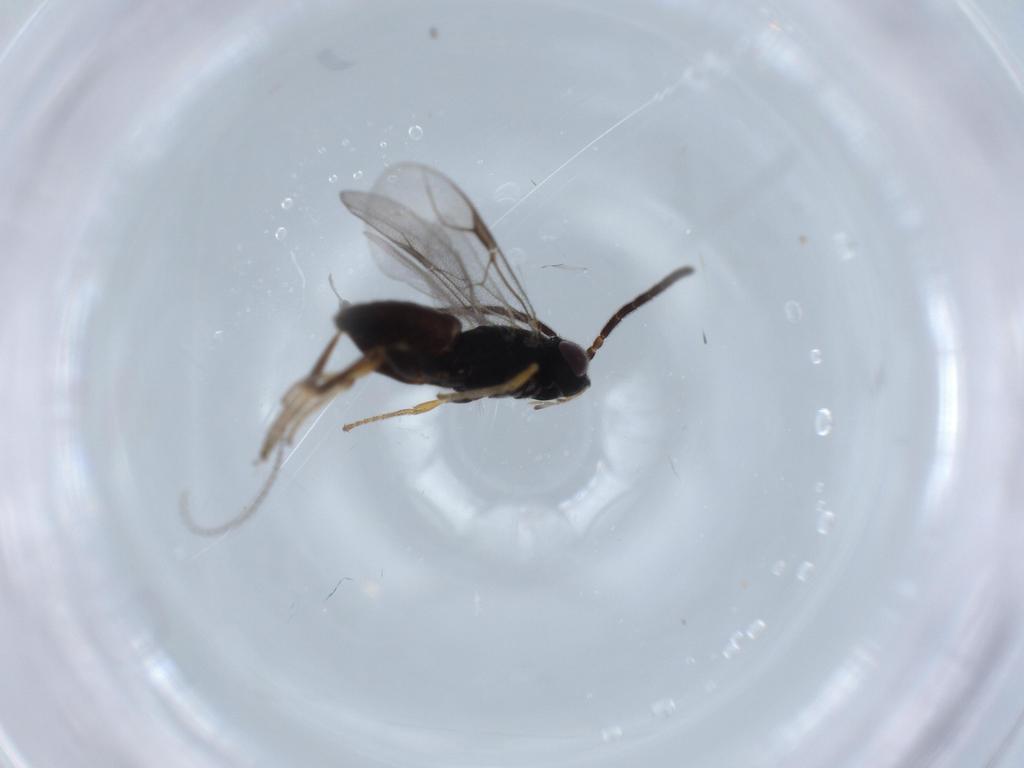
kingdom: Animalia
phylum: Arthropoda
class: Insecta
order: Hymenoptera
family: Dryinidae
